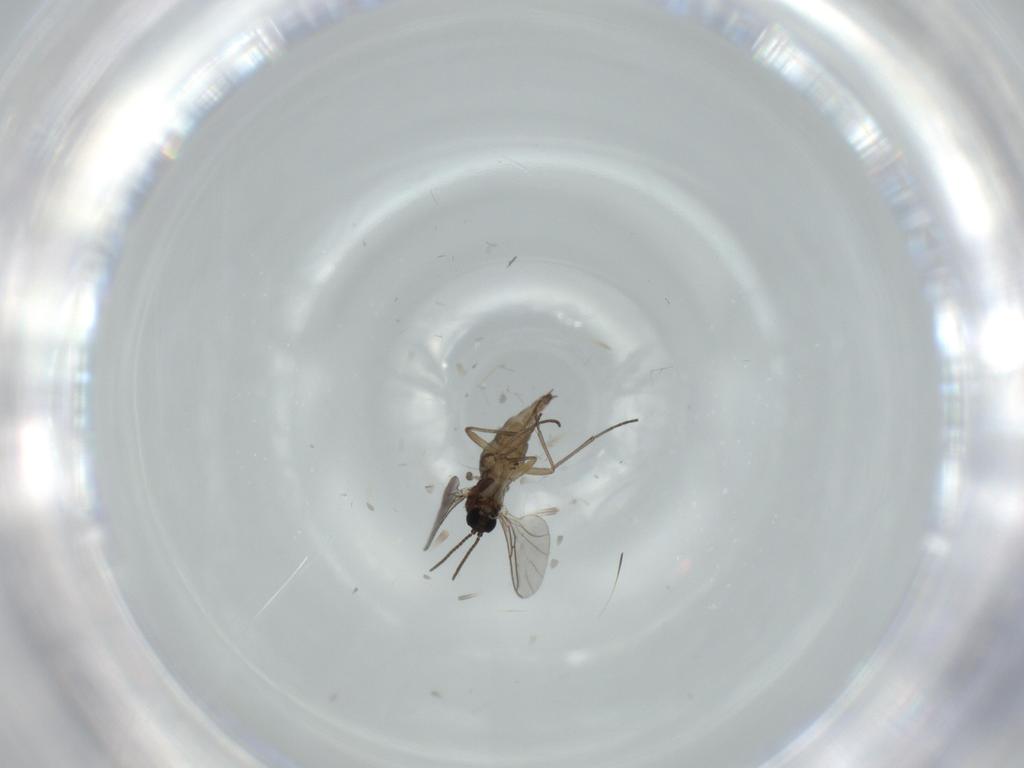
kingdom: Animalia
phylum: Arthropoda
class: Insecta
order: Diptera
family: Sciaridae
